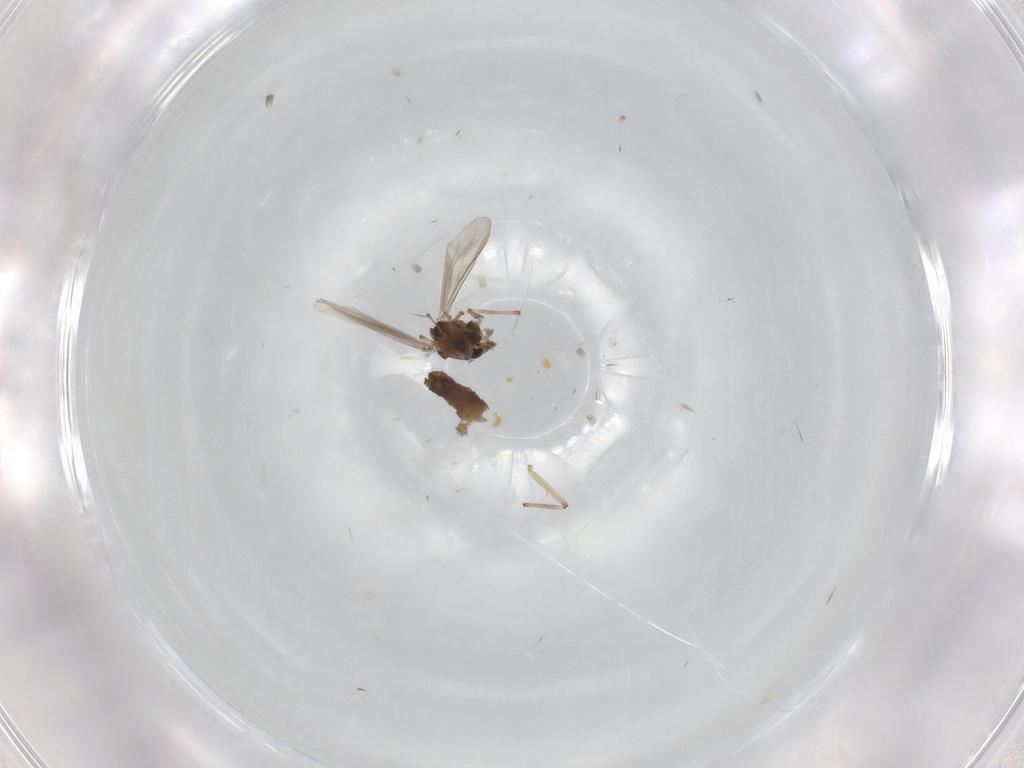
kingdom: Animalia
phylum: Arthropoda
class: Insecta
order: Diptera
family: Chironomidae
